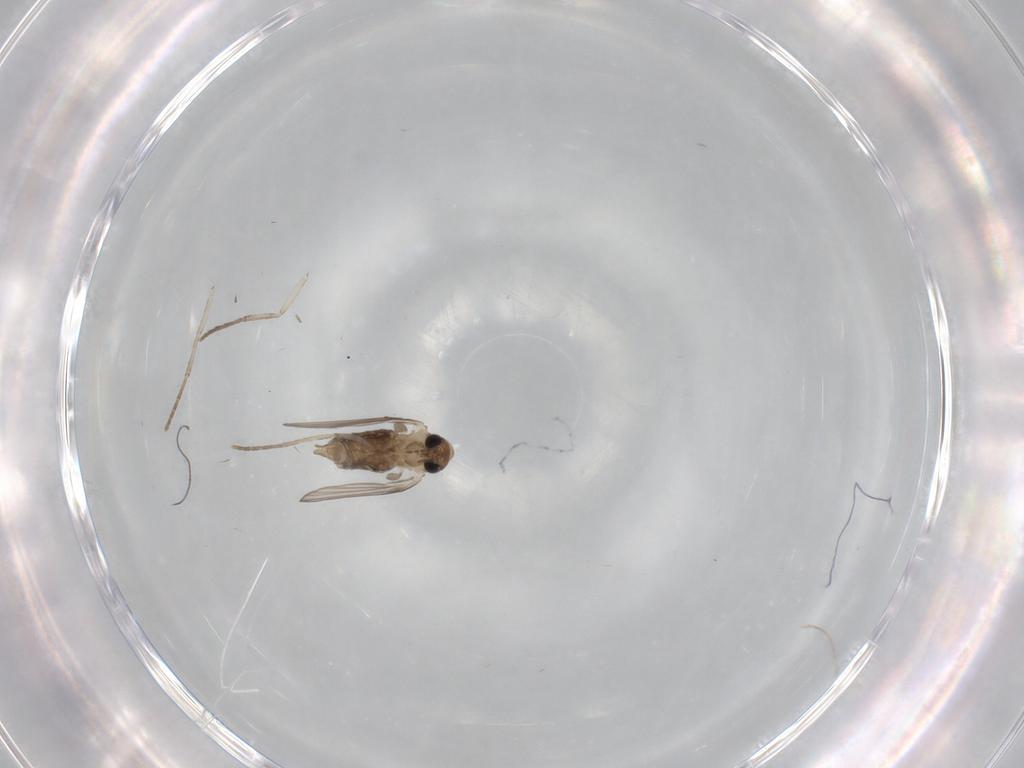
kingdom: Animalia
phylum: Arthropoda
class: Insecta
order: Diptera
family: Psychodidae
